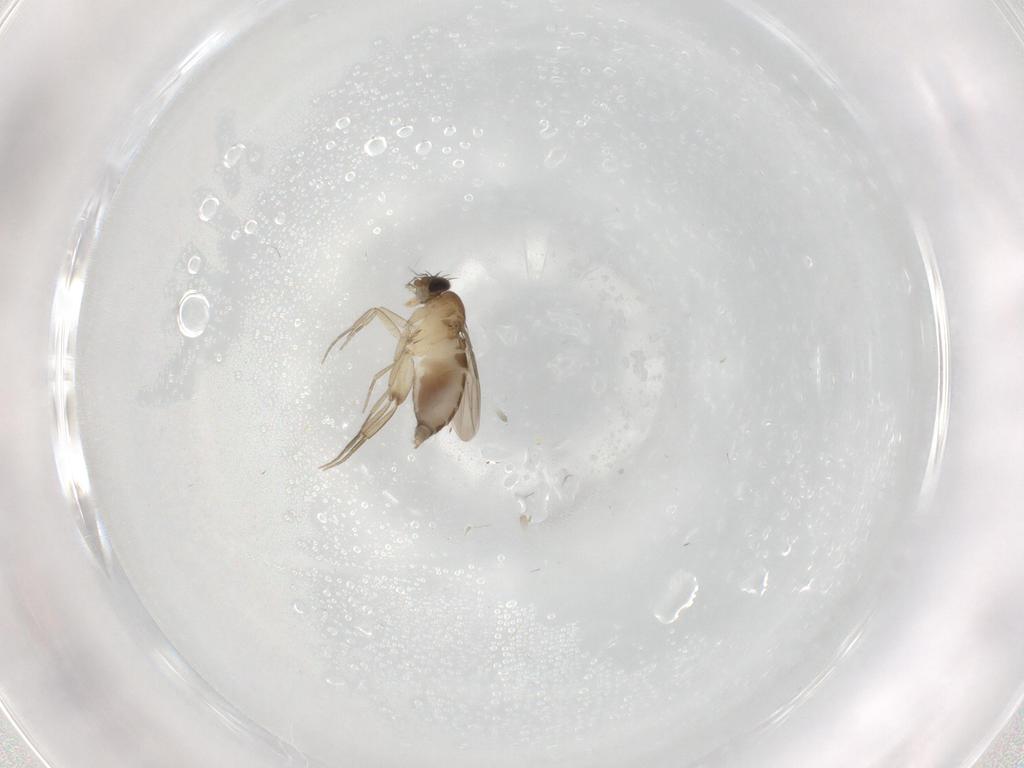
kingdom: Animalia
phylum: Arthropoda
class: Insecta
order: Diptera
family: Phoridae
